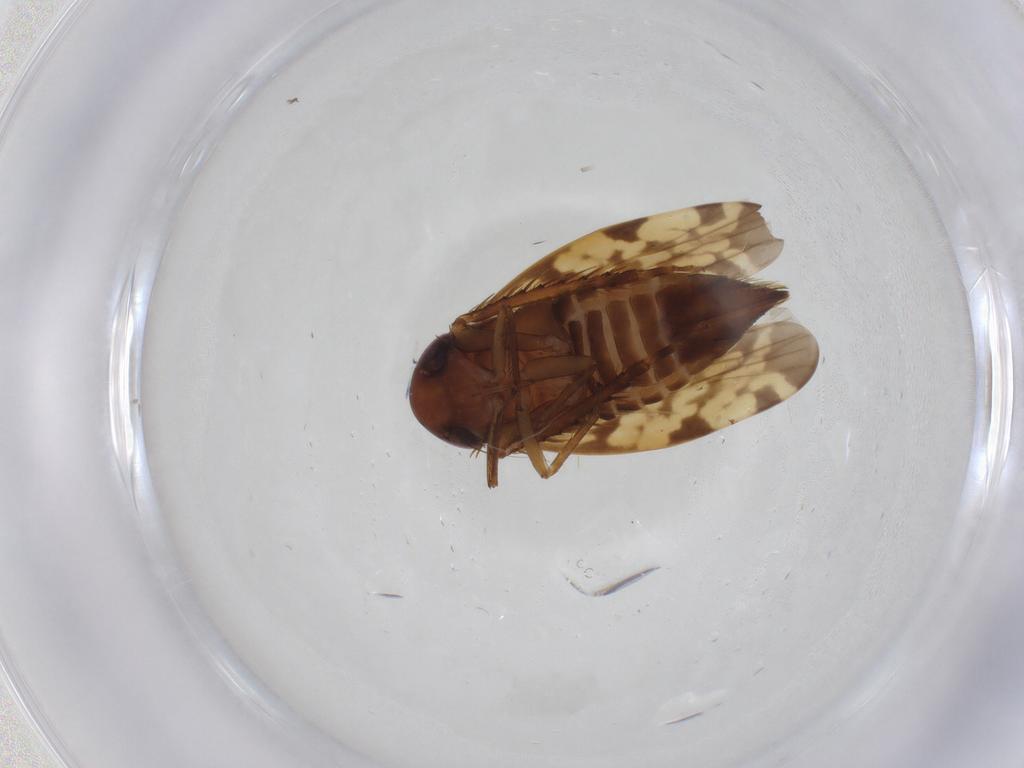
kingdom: Animalia
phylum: Arthropoda
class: Insecta
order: Hemiptera
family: Cicadellidae
